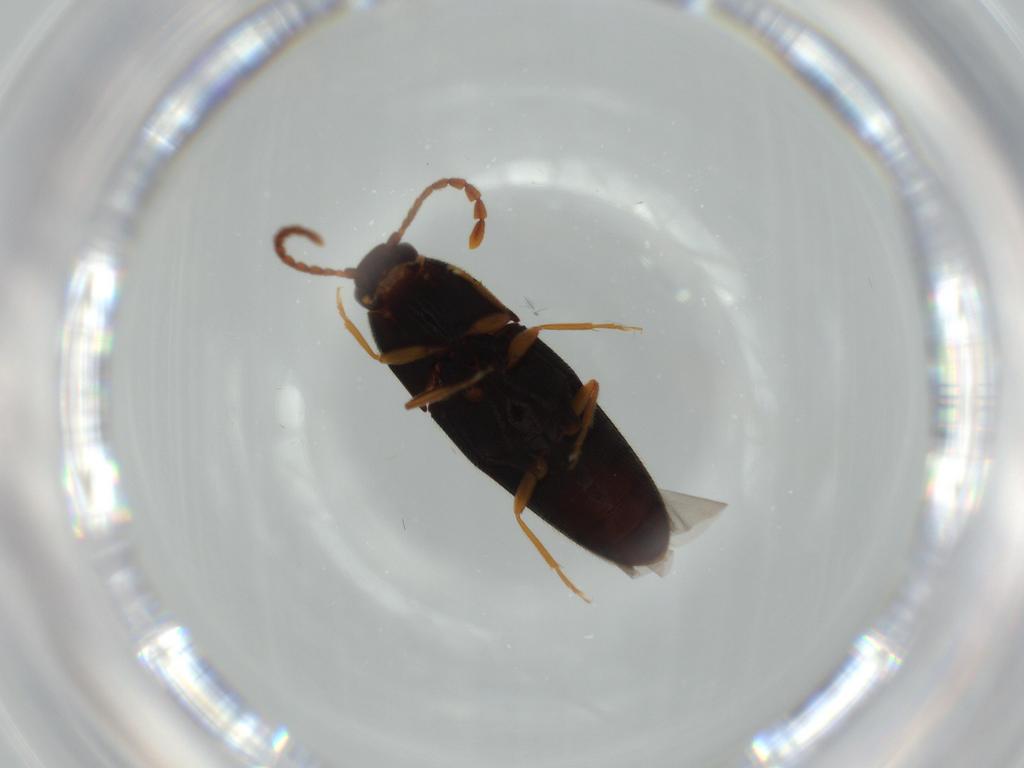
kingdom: Animalia
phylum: Arthropoda
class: Insecta
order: Coleoptera
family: Elateridae
